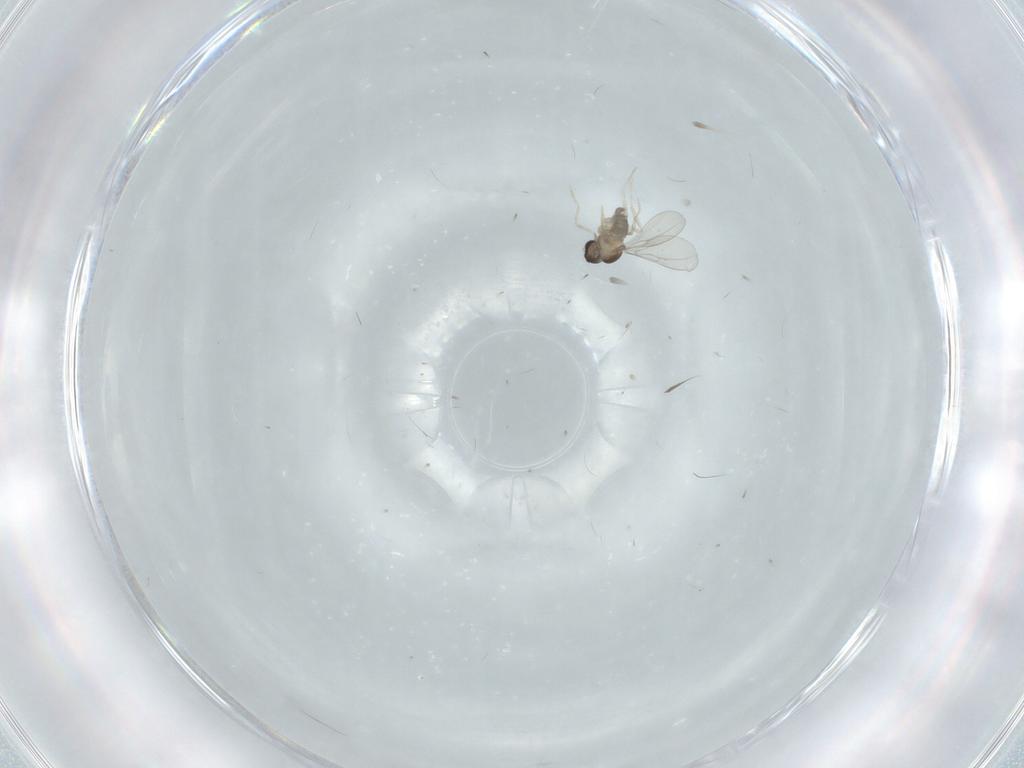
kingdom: Animalia
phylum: Arthropoda
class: Insecta
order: Diptera
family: Cecidomyiidae
